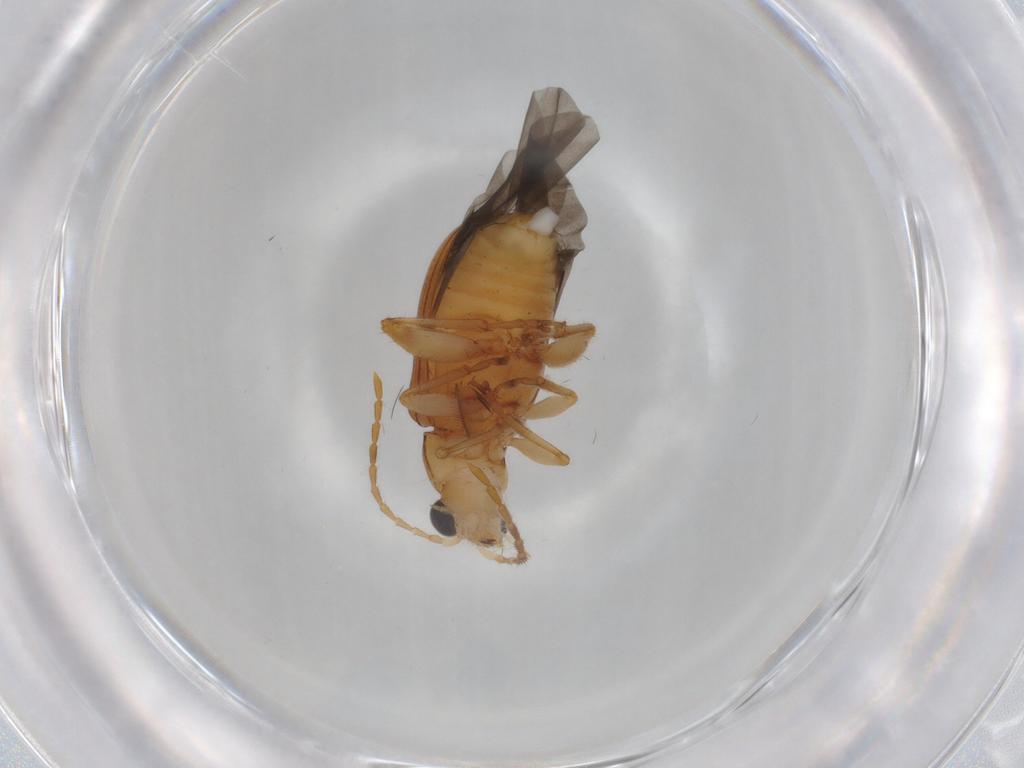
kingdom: Animalia
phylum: Arthropoda
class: Insecta
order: Coleoptera
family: Chrysomelidae
